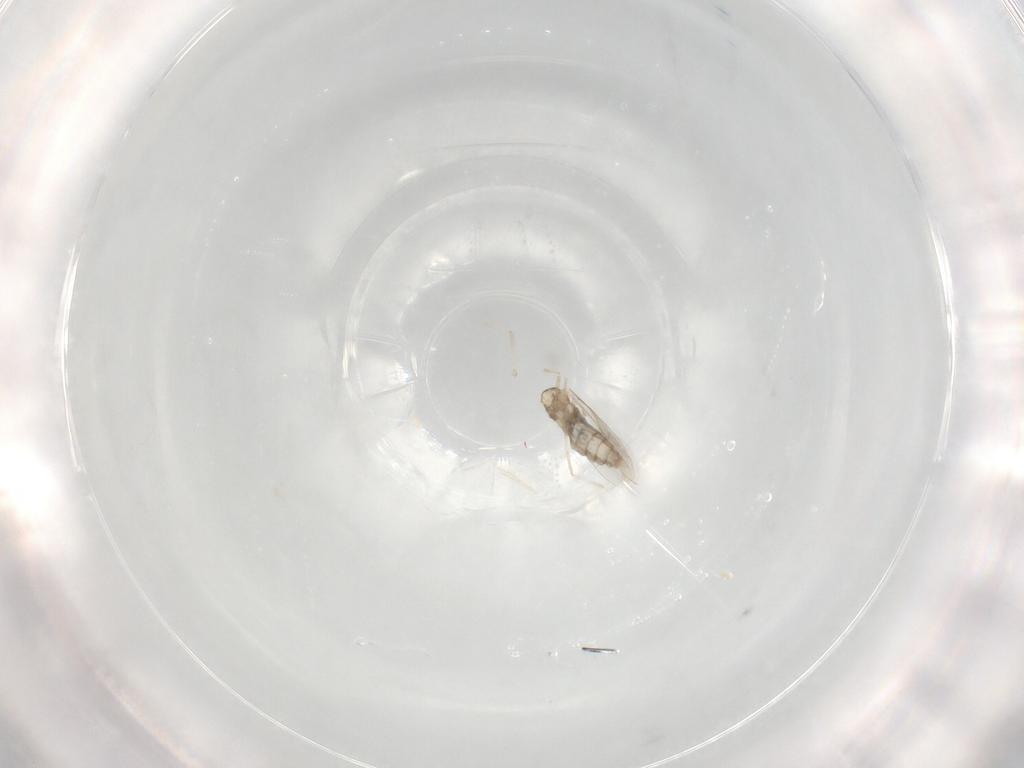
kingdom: Animalia
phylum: Arthropoda
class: Insecta
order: Diptera
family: Cecidomyiidae
